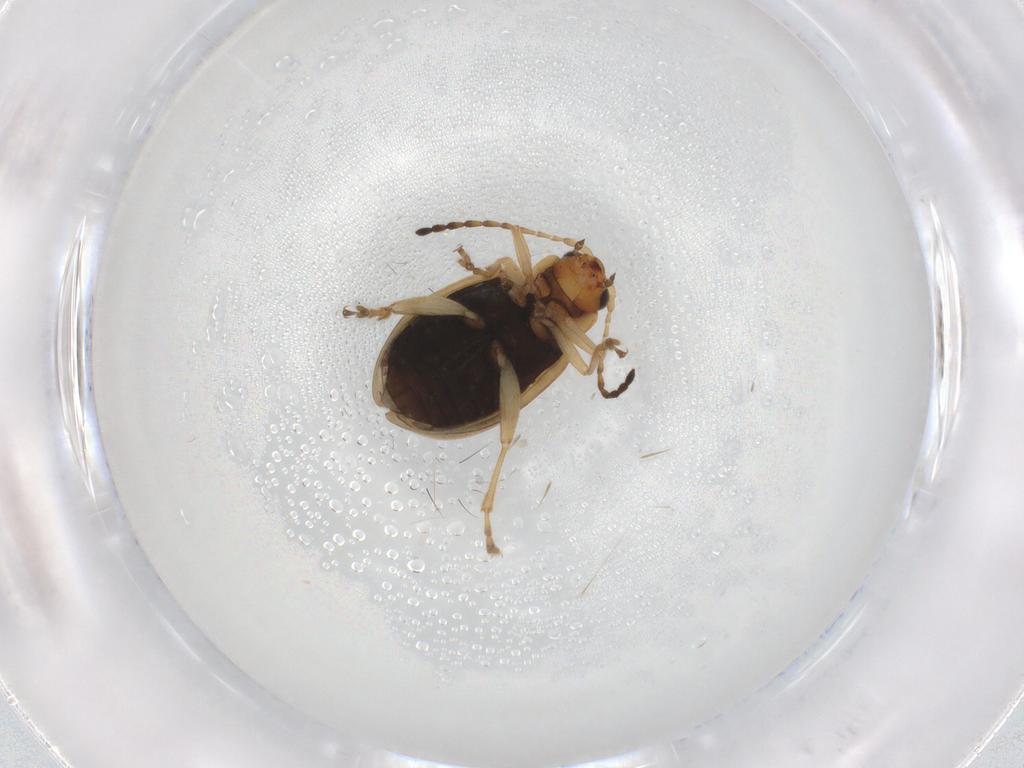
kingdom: Animalia
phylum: Arthropoda
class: Insecta
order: Coleoptera
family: Chrysomelidae
